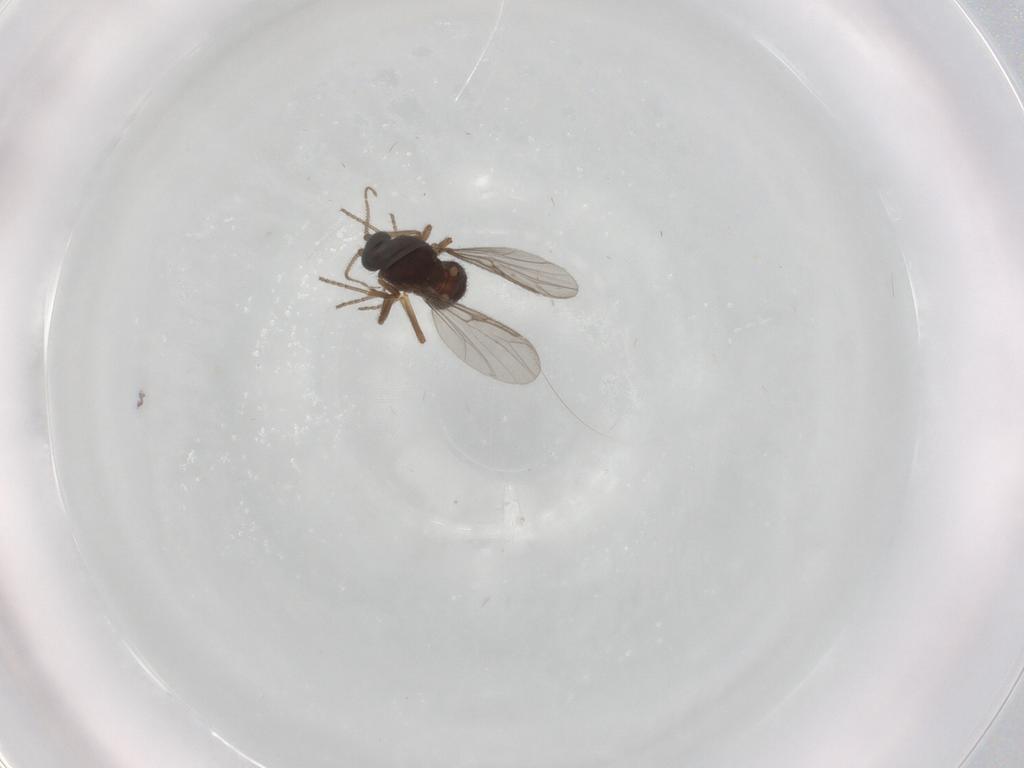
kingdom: Animalia
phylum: Arthropoda
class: Insecta
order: Diptera
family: Ceratopogonidae
